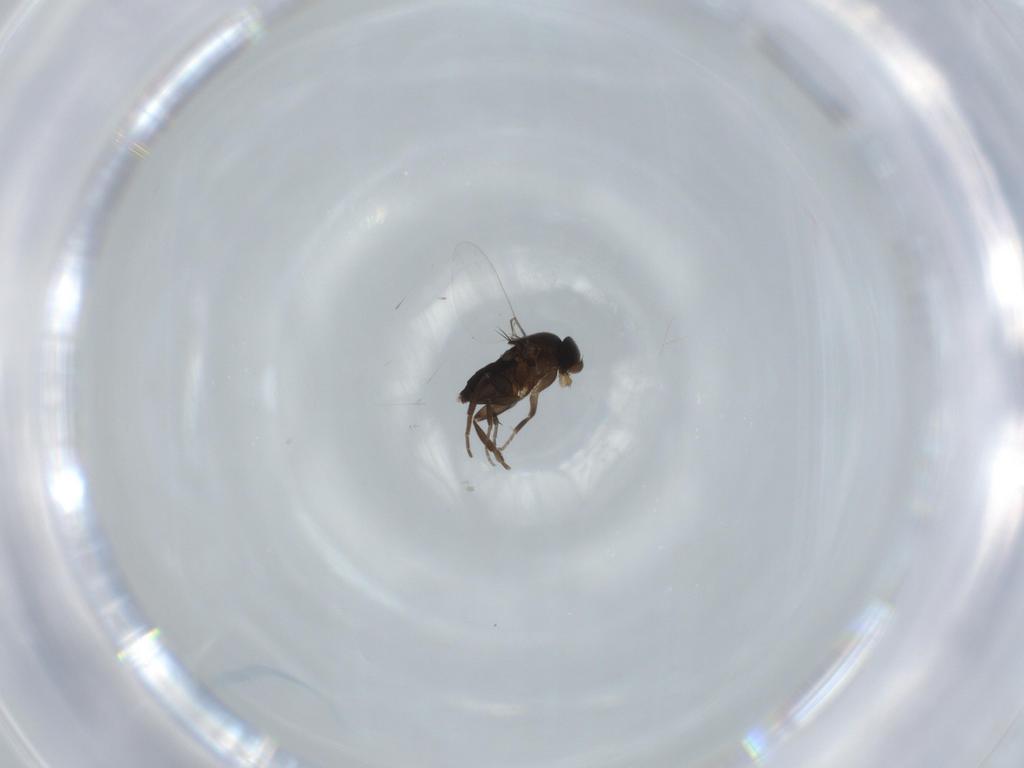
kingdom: Animalia
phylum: Arthropoda
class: Insecta
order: Diptera
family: Phoridae
